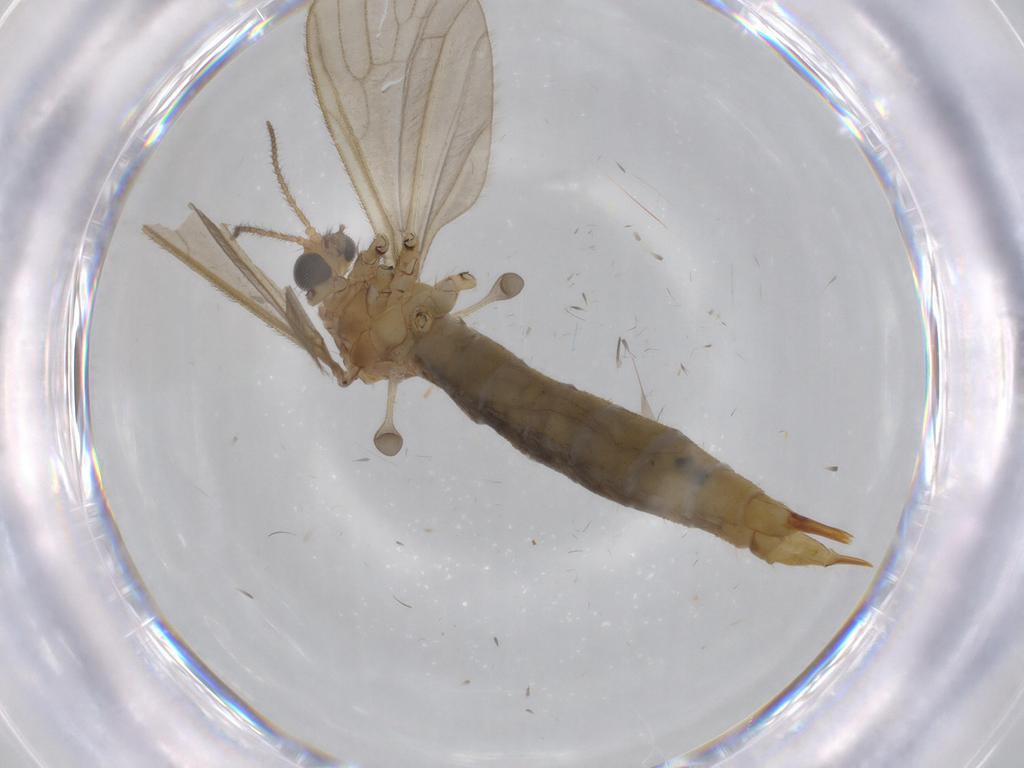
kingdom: Animalia
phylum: Arthropoda
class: Insecta
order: Diptera
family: Limoniidae
